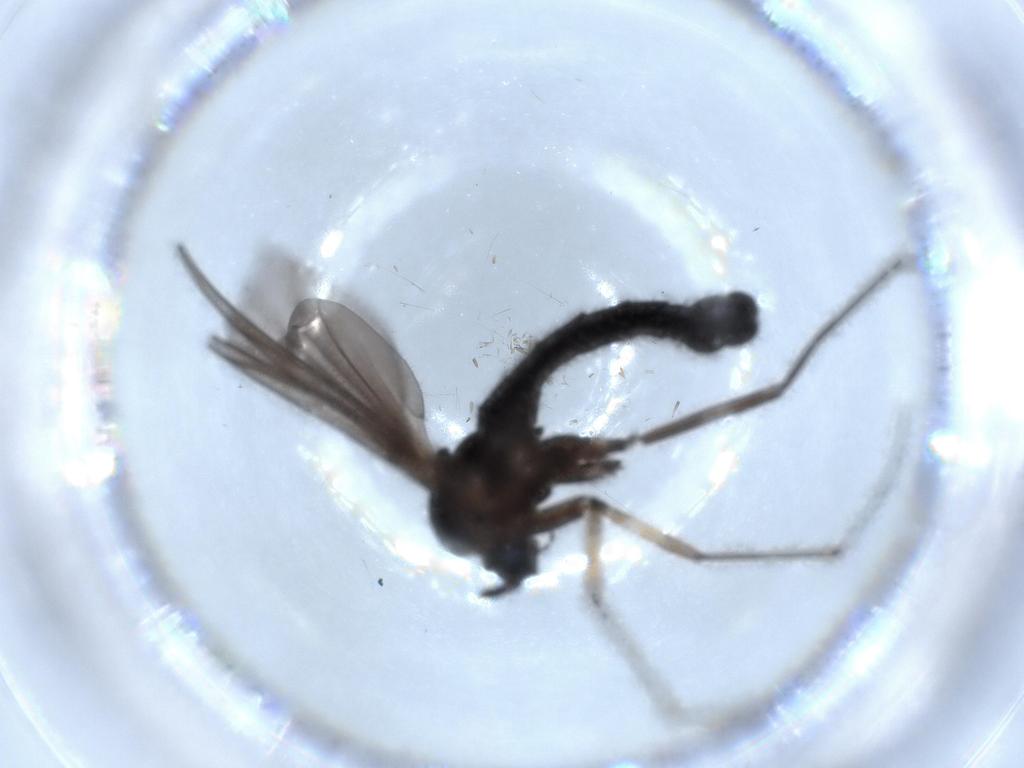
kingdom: Animalia
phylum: Arthropoda
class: Insecta
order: Diptera
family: Sciaridae
